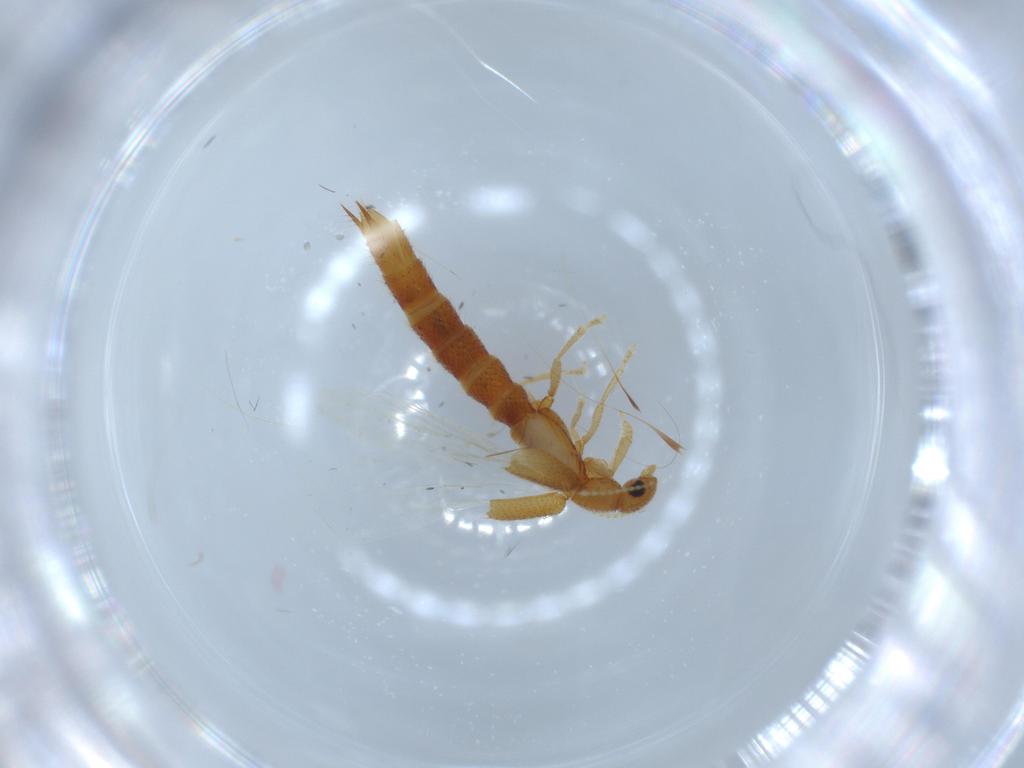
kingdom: Animalia
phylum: Arthropoda
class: Insecta
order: Coleoptera
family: Staphylinidae
